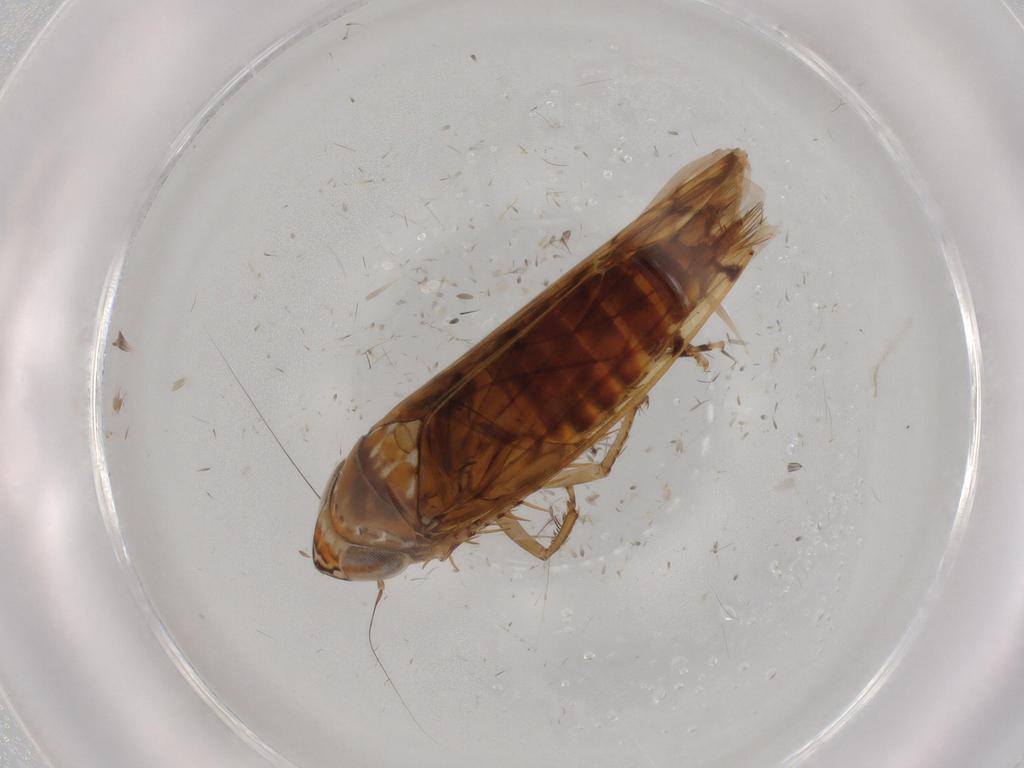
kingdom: Animalia
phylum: Arthropoda
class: Insecta
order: Hemiptera
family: Cicadellidae
